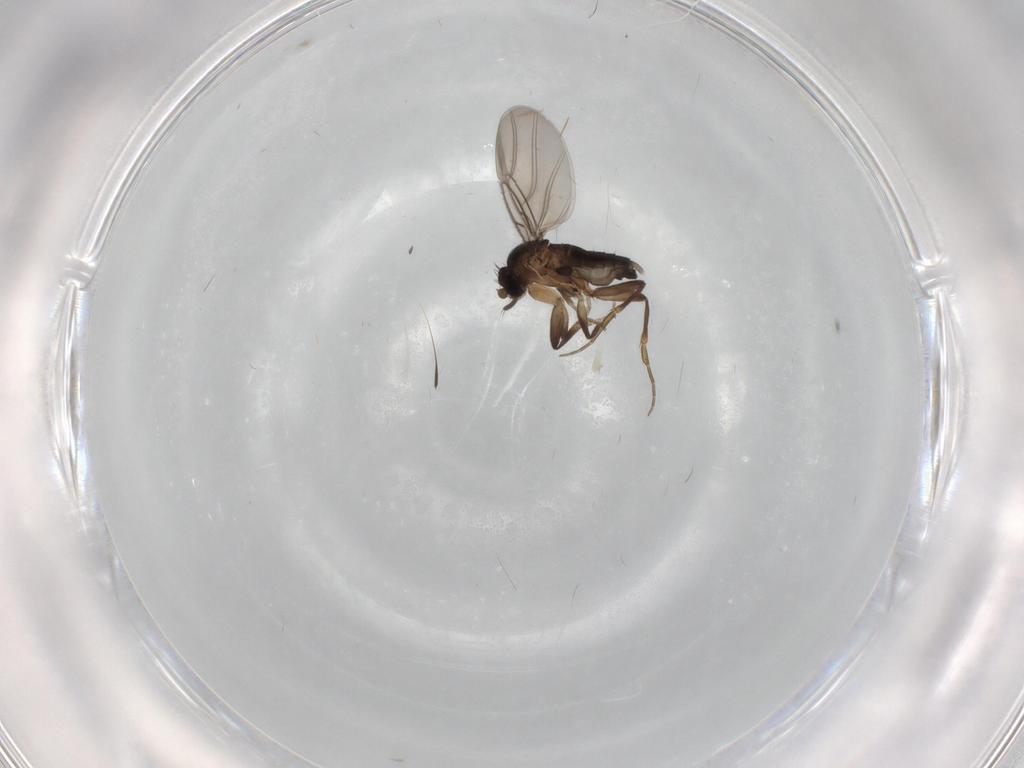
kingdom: Animalia
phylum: Arthropoda
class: Insecta
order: Diptera
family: Phoridae
